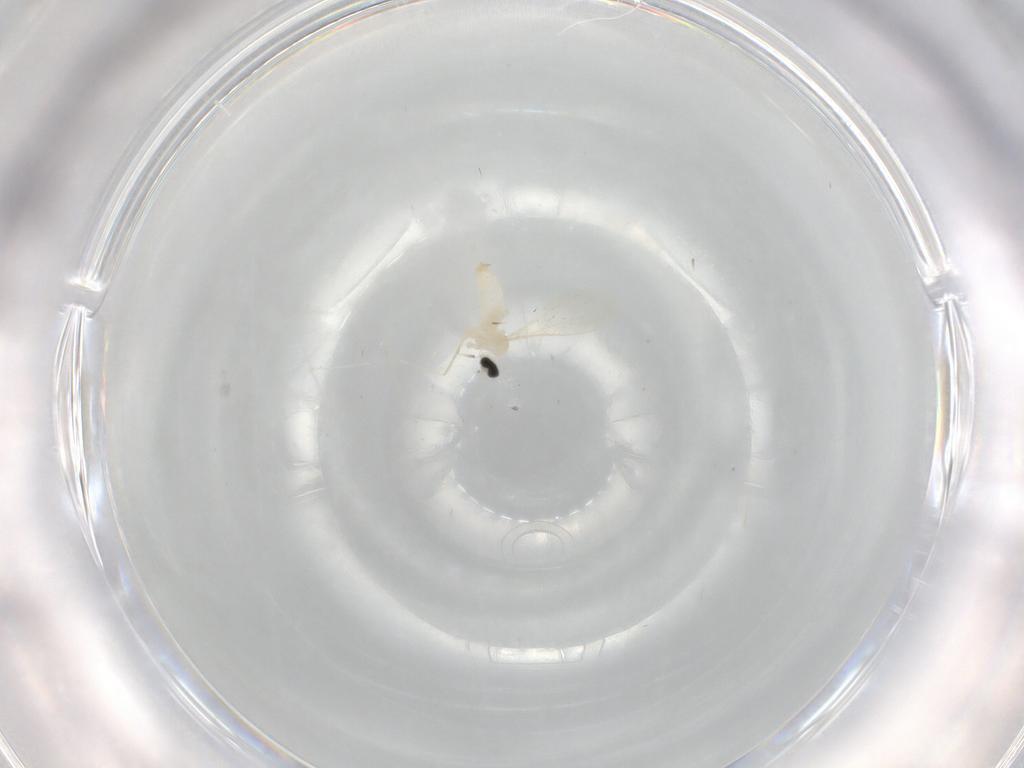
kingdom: Animalia
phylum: Arthropoda
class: Insecta
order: Diptera
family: Cecidomyiidae
